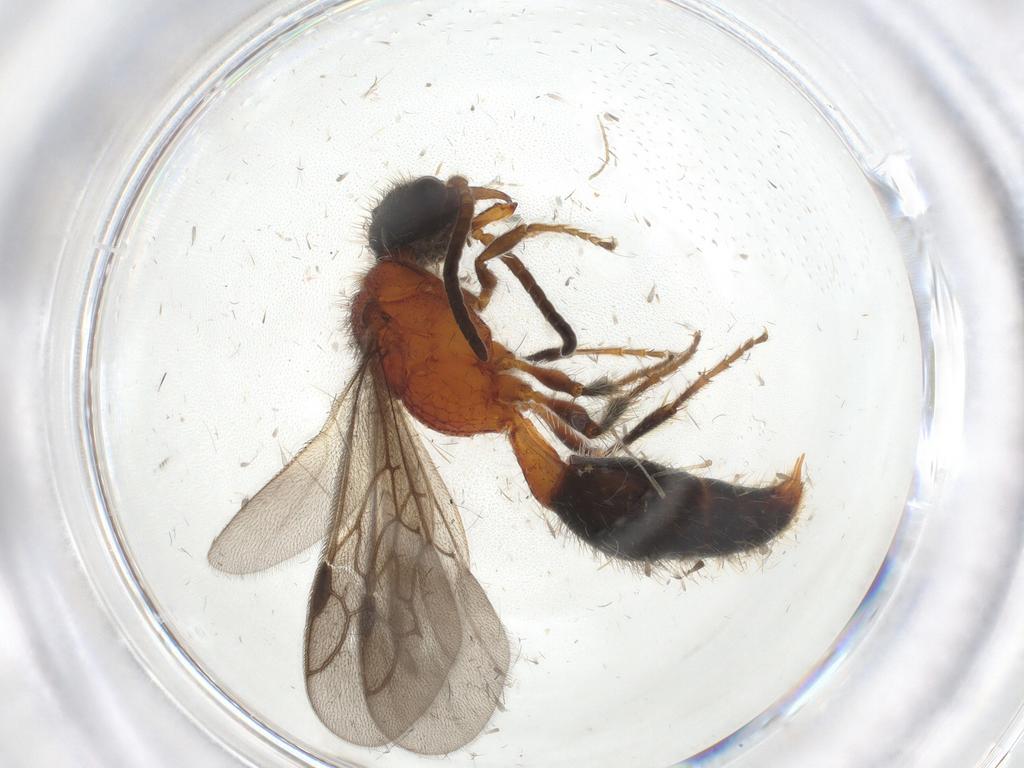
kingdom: Animalia
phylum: Arthropoda
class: Insecta
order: Hymenoptera
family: Mutillidae
